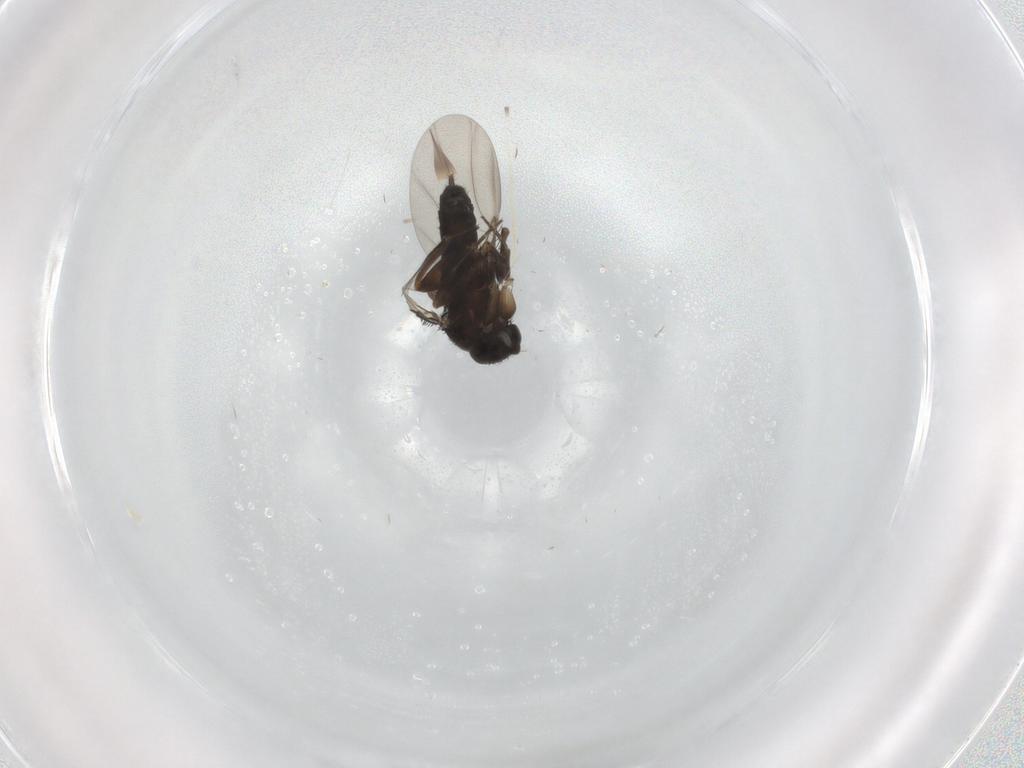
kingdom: Animalia
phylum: Arthropoda
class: Insecta
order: Diptera
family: Phoridae
